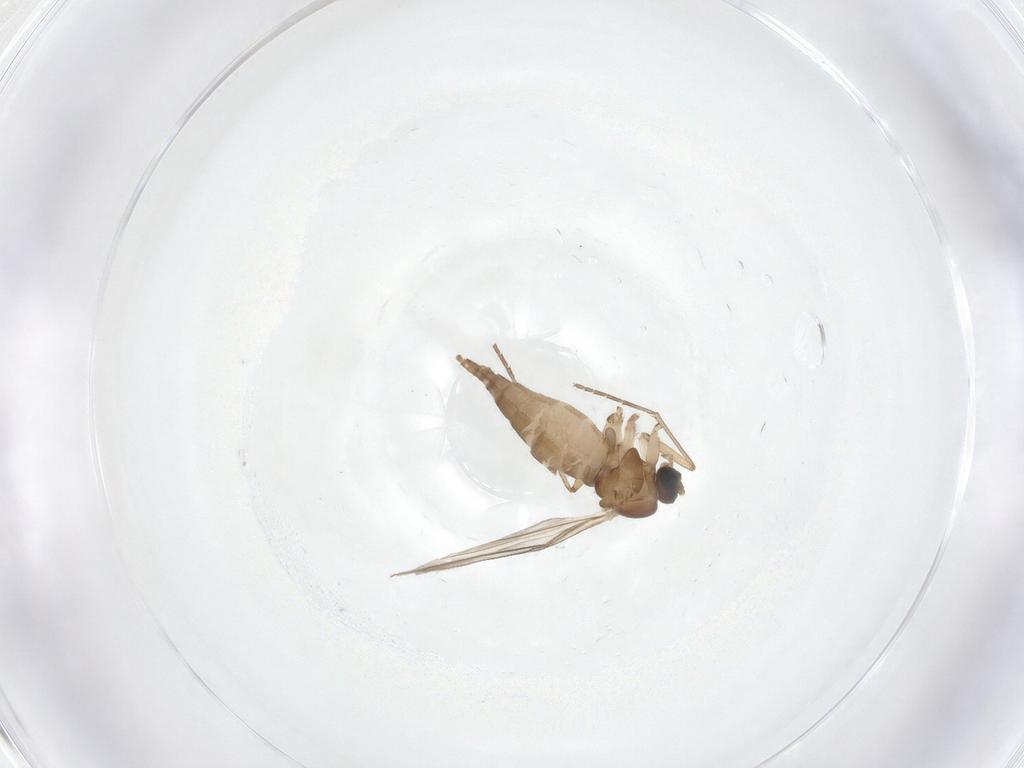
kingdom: Animalia
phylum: Arthropoda
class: Insecta
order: Diptera
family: Sciaridae
